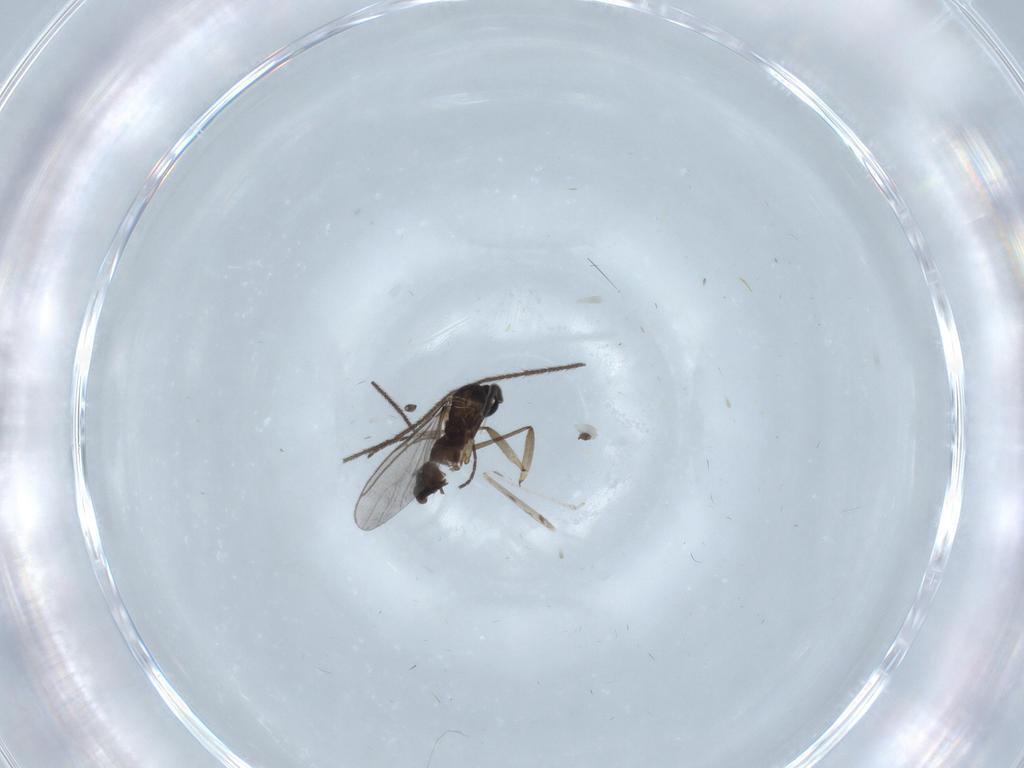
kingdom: Animalia
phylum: Arthropoda
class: Insecta
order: Diptera
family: Sciaridae
